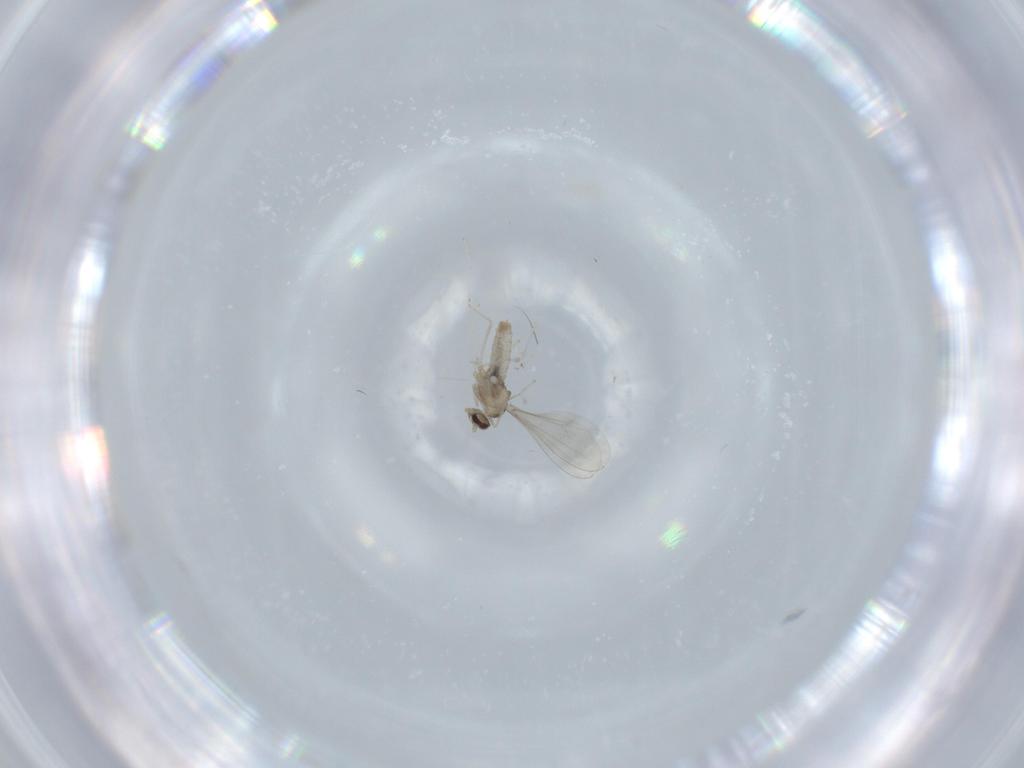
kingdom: Animalia
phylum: Arthropoda
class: Insecta
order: Diptera
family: Cecidomyiidae
